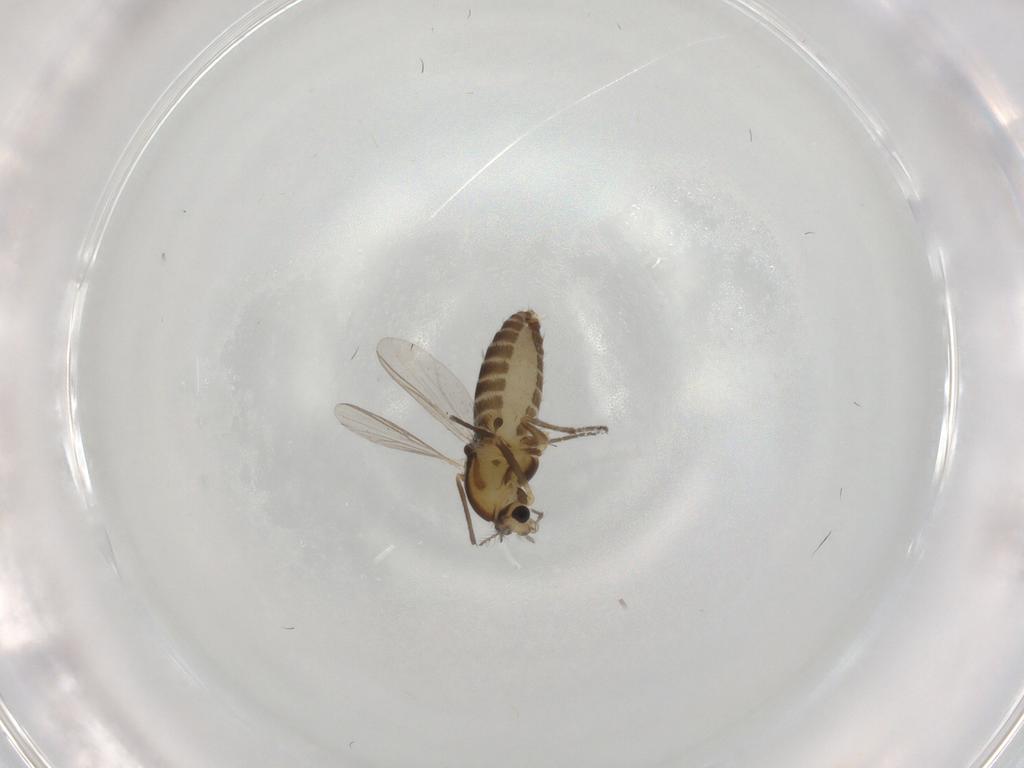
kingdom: Animalia
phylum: Arthropoda
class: Insecta
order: Diptera
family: Chironomidae
